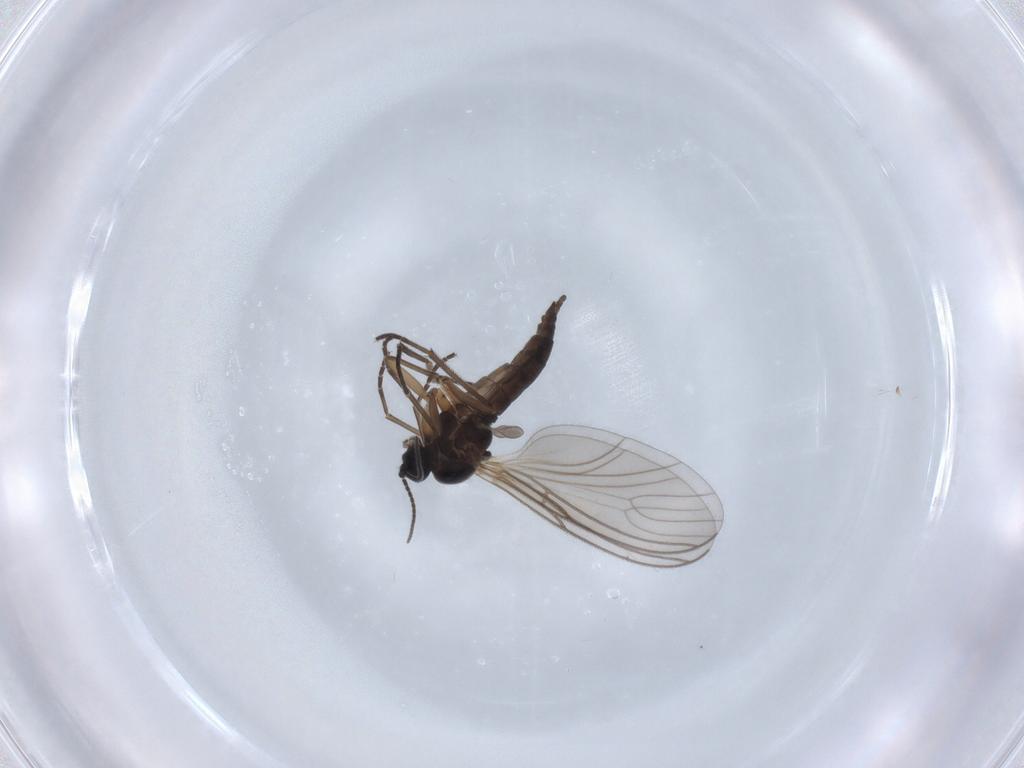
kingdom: Animalia
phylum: Arthropoda
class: Insecta
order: Diptera
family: Sciaridae
